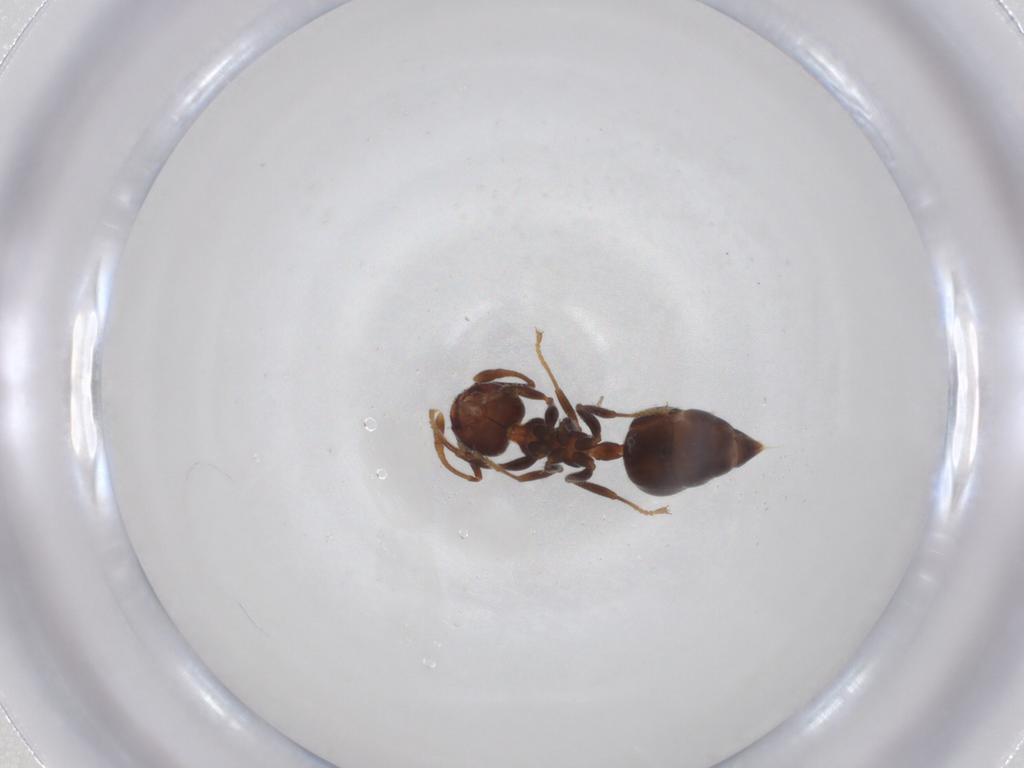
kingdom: Animalia
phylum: Arthropoda
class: Insecta
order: Hymenoptera
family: Formicidae
